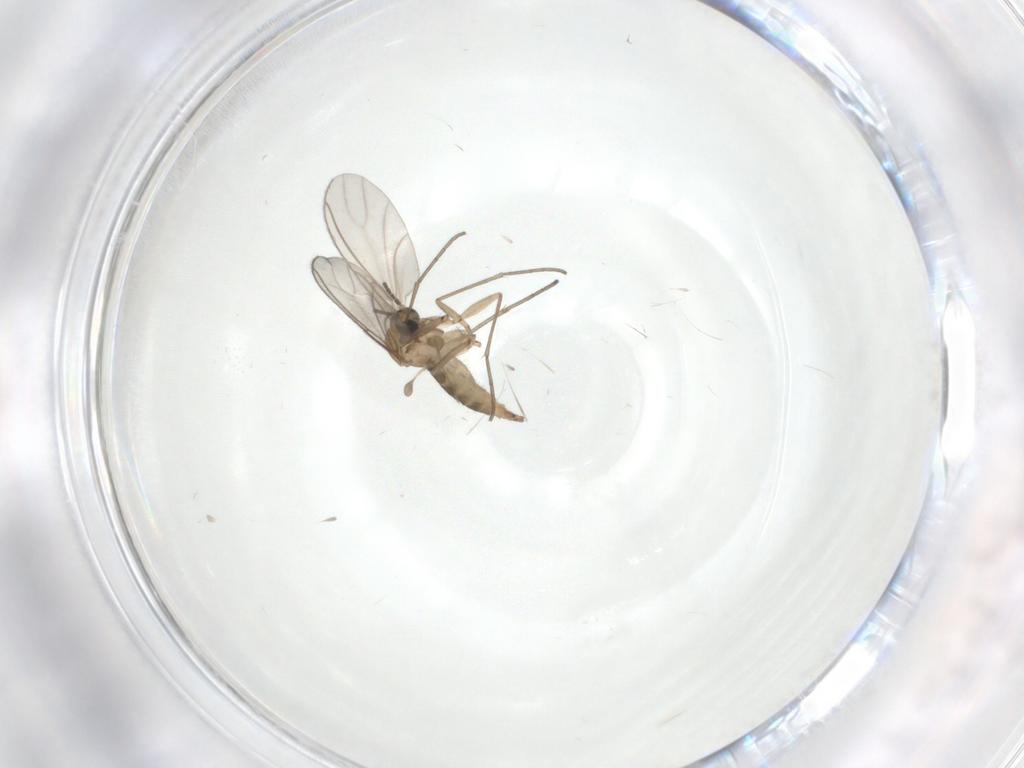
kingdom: Animalia
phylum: Arthropoda
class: Insecta
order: Diptera
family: Sciaridae
